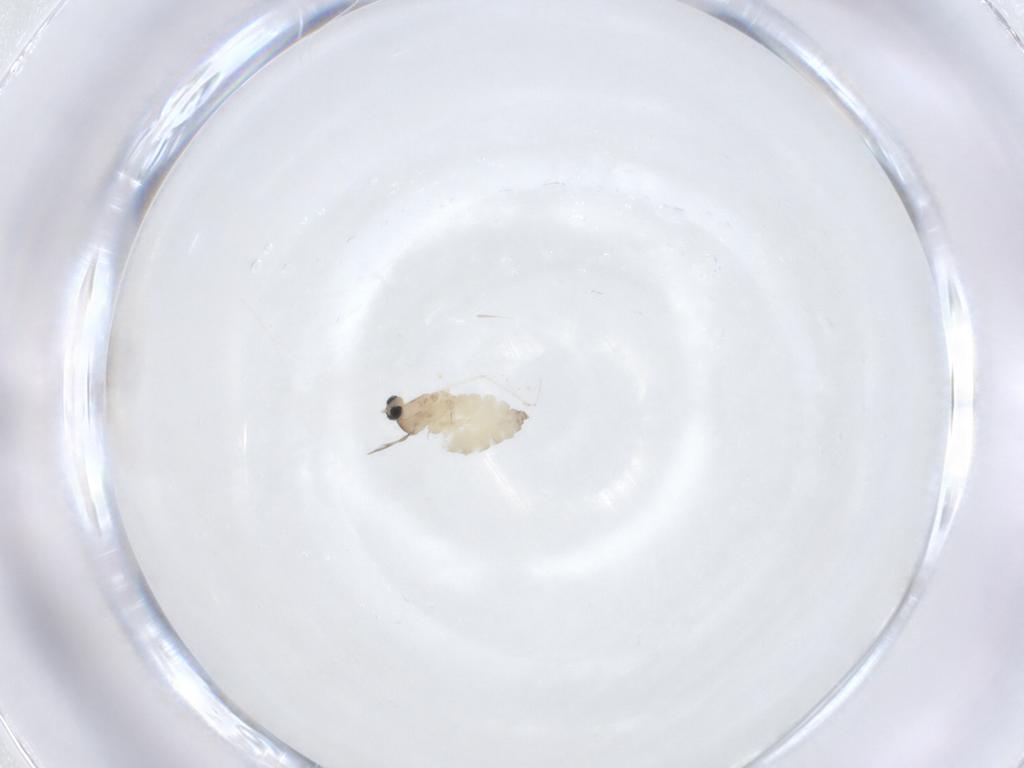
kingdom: Animalia
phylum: Arthropoda
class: Insecta
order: Diptera
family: Cecidomyiidae
